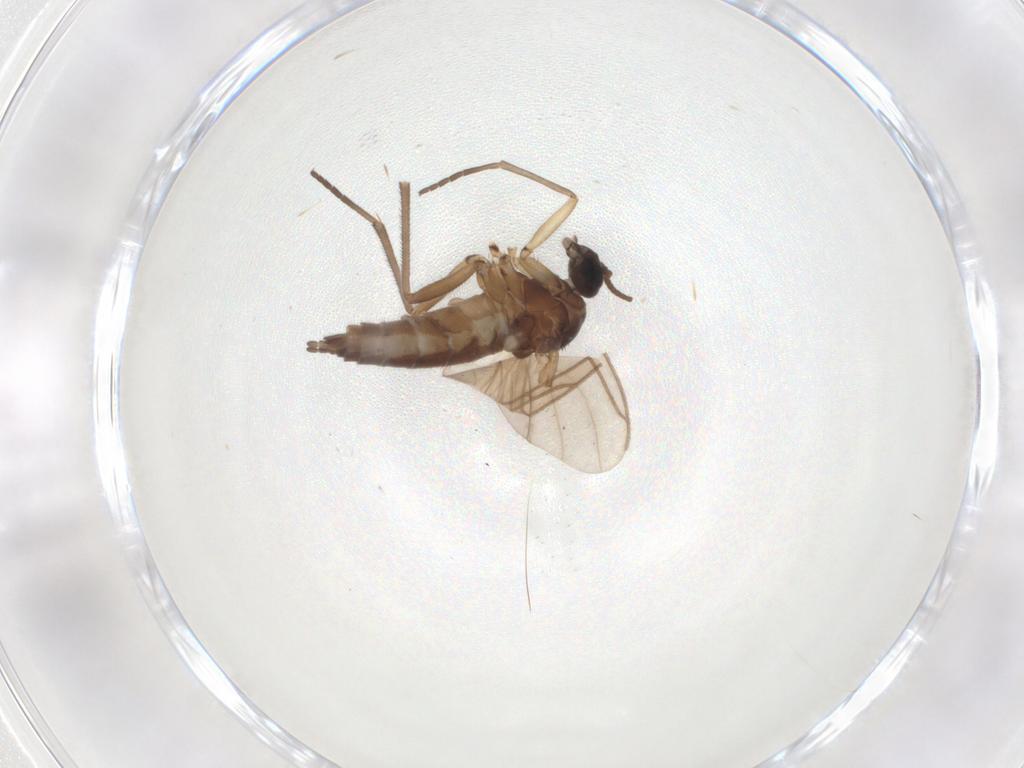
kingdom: Animalia
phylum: Arthropoda
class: Insecta
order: Diptera
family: Sciaridae
